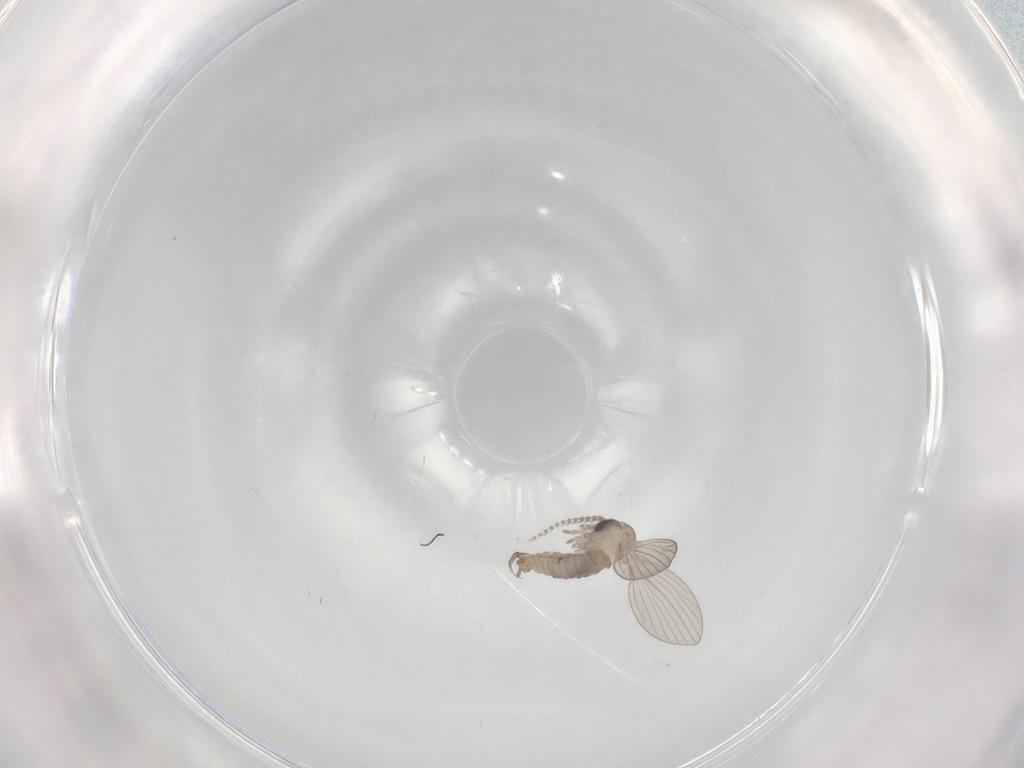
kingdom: Animalia
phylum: Arthropoda
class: Insecta
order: Diptera
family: Psychodidae
